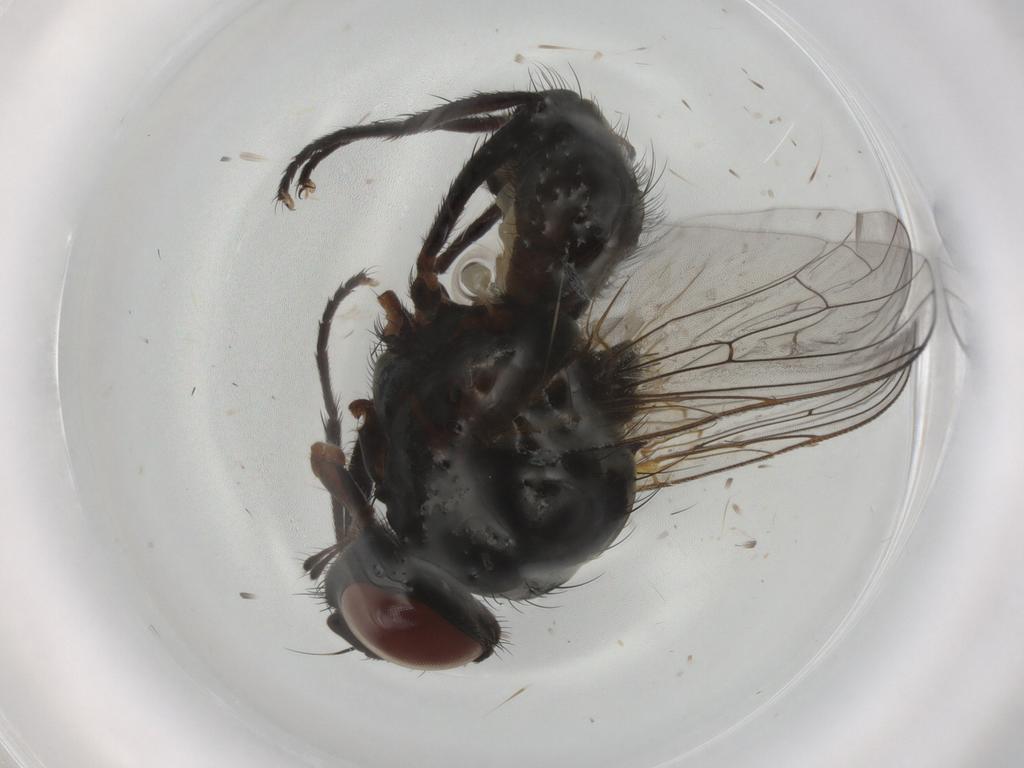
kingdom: Animalia
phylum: Arthropoda
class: Insecta
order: Diptera
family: Anthomyiidae
